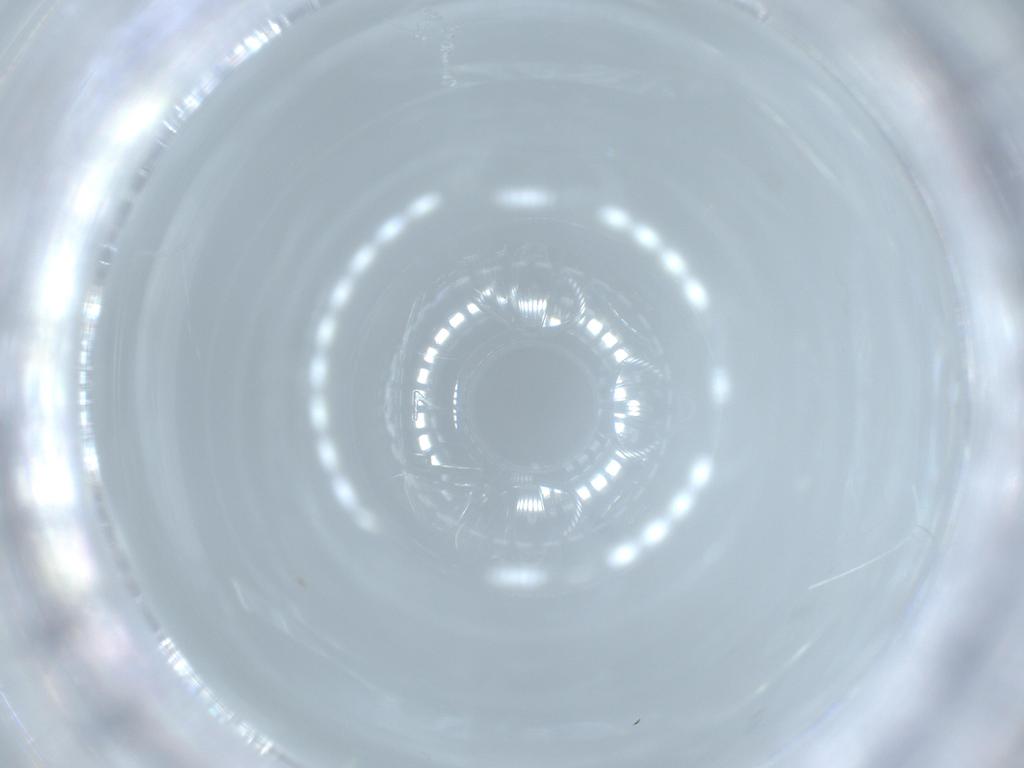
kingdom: Animalia
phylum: Arthropoda
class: Insecta
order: Diptera
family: Cecidomyiidae
